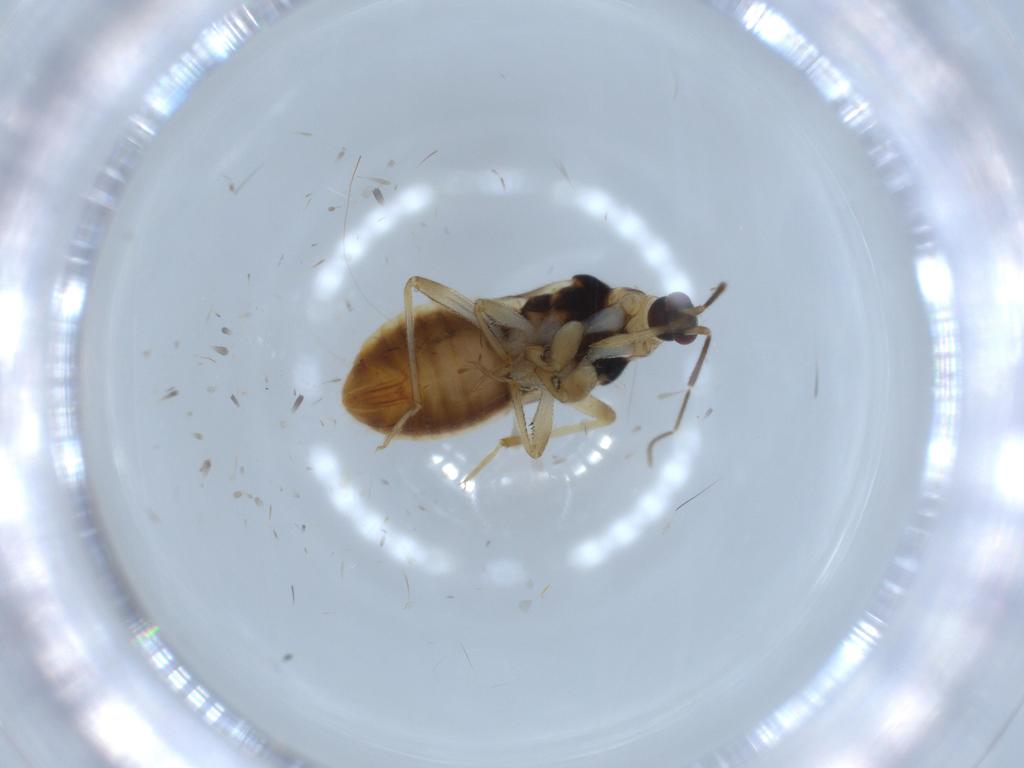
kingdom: Animalia
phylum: Arthropoda
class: Insecta
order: Hemiptera
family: Nabidae
